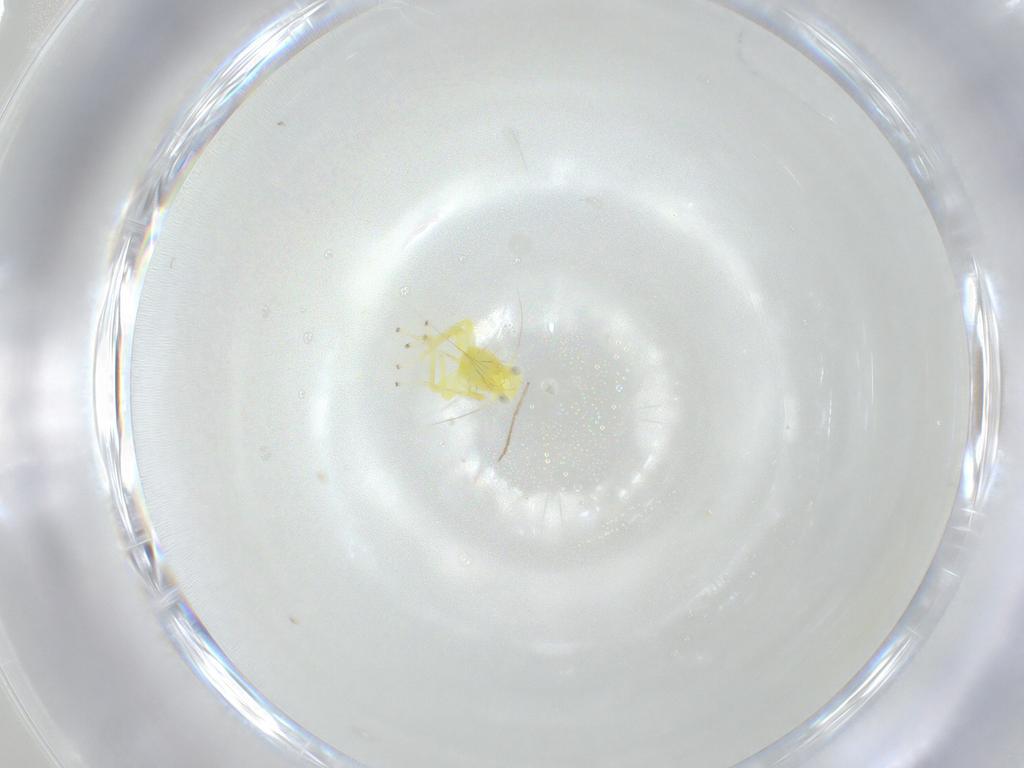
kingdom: Animalia
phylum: Arthropoda
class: Insecta
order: Hemiptera
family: Cicadellidae
